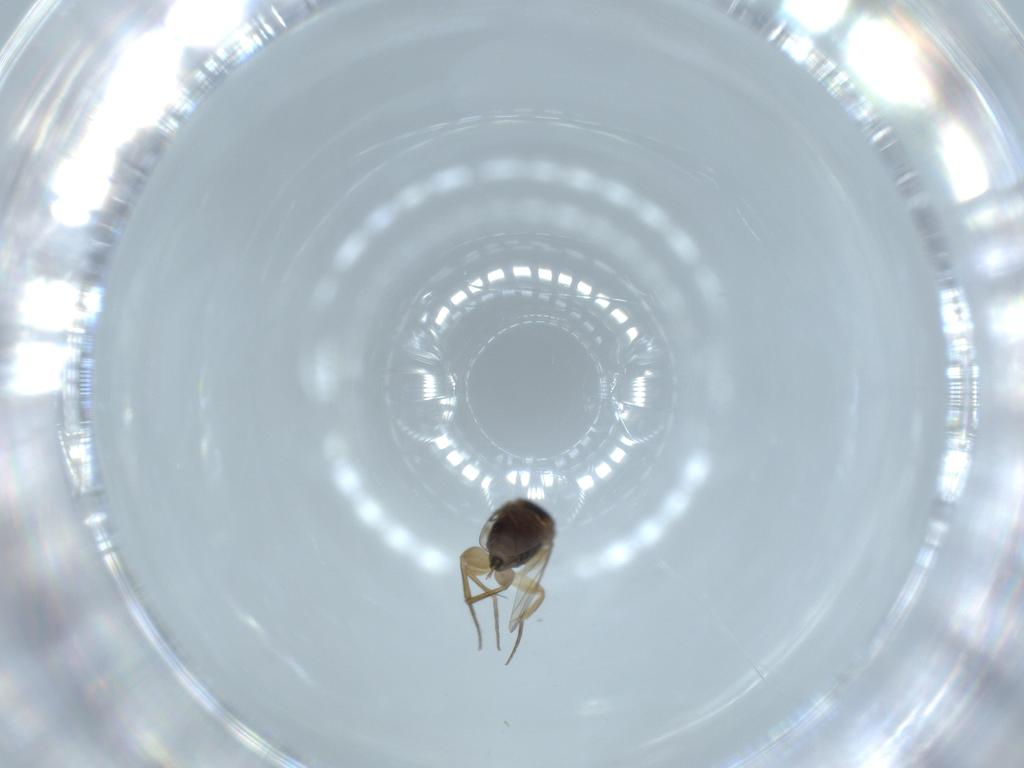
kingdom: Animalia
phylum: Arthropoda
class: Insecta
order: Diptera
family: Phoridae
